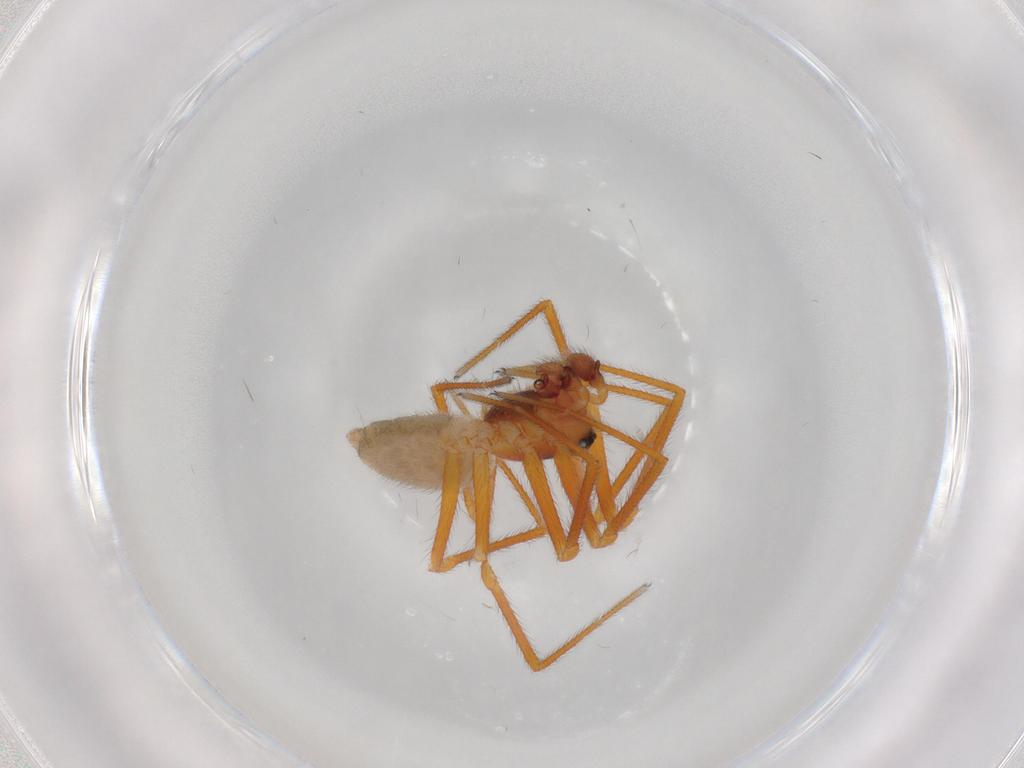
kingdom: Animalia
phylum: Arthropoda
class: Arachnida
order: Araneae
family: Linyphiidae
